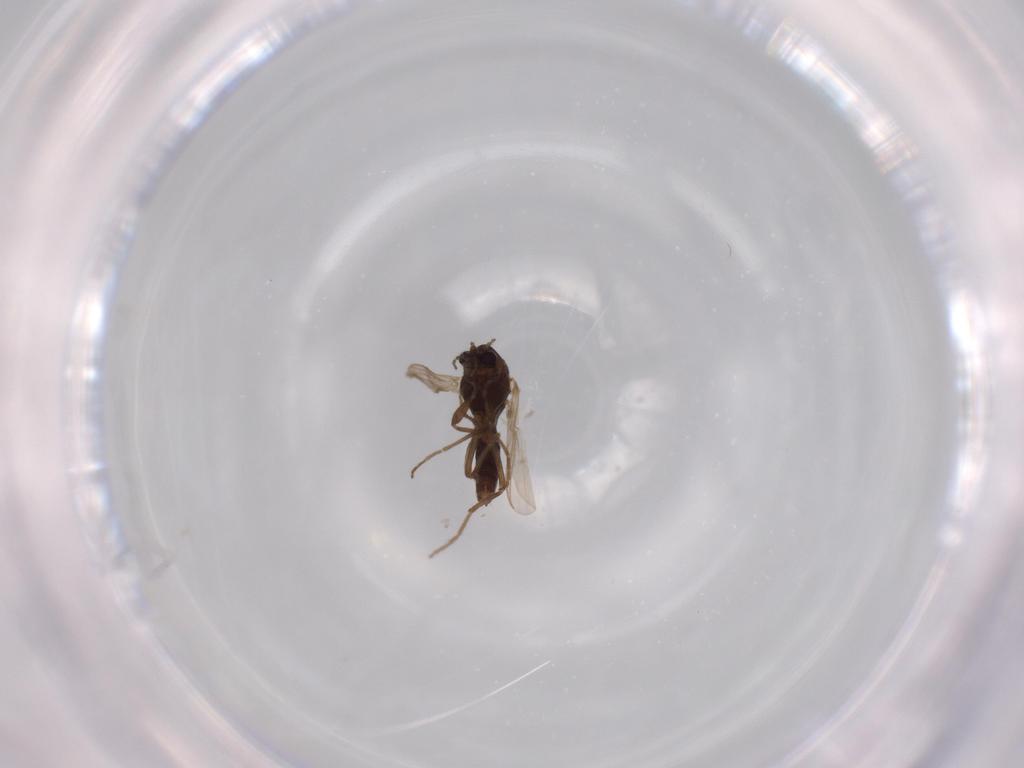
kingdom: Animalia
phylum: Arthropoda
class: Insecta
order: Diptera
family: Chironomidae
